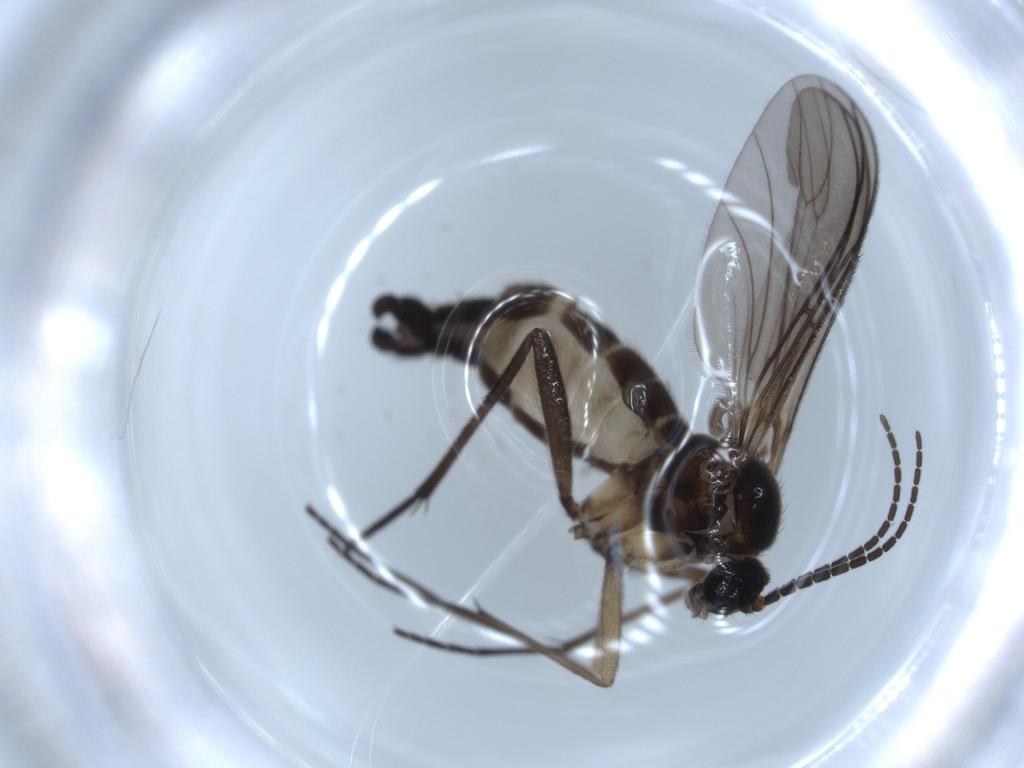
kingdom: Animalia
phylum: Arthropoda
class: Insecta
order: Diptera
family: Sciaridae
